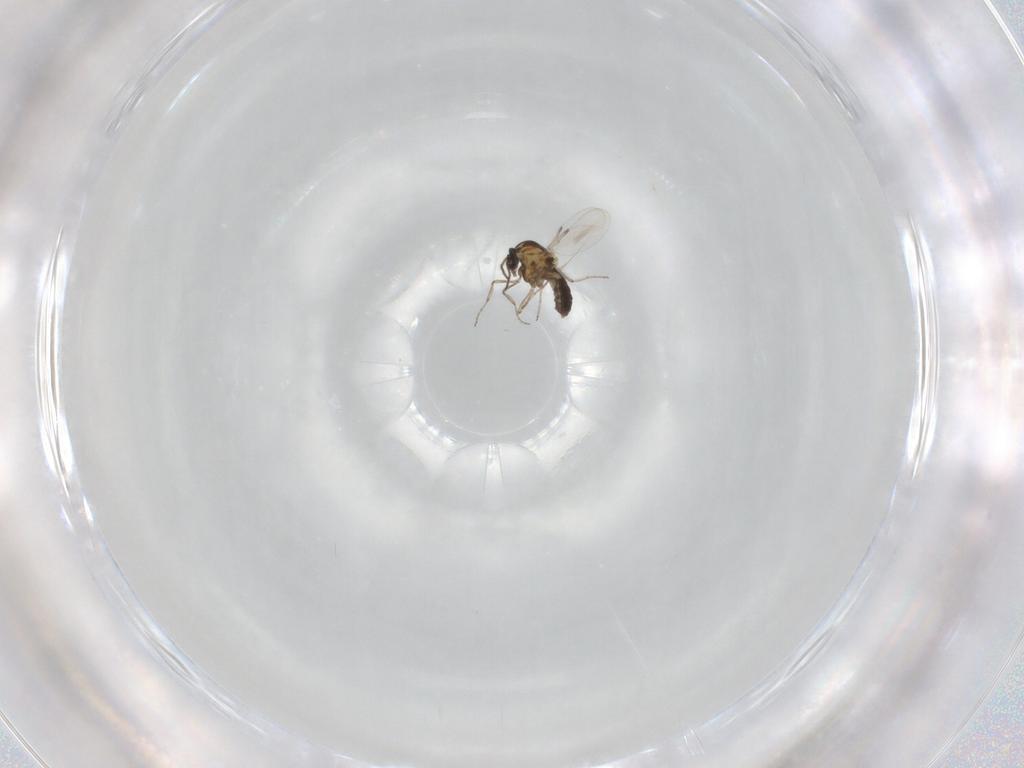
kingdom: Animalia
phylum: Arthropoda
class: Insecta
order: Diptera
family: Ceratopogonidae
